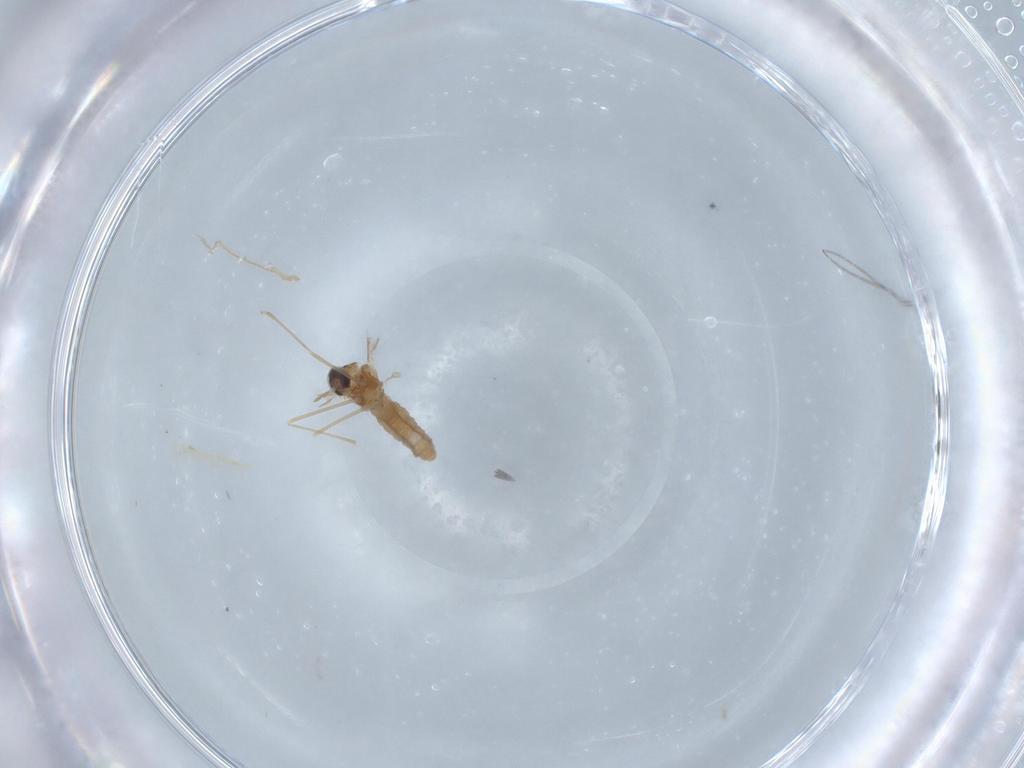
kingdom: Animalia
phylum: Arthropoda
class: Insecta
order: Diptera
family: Cecidomyiidae
